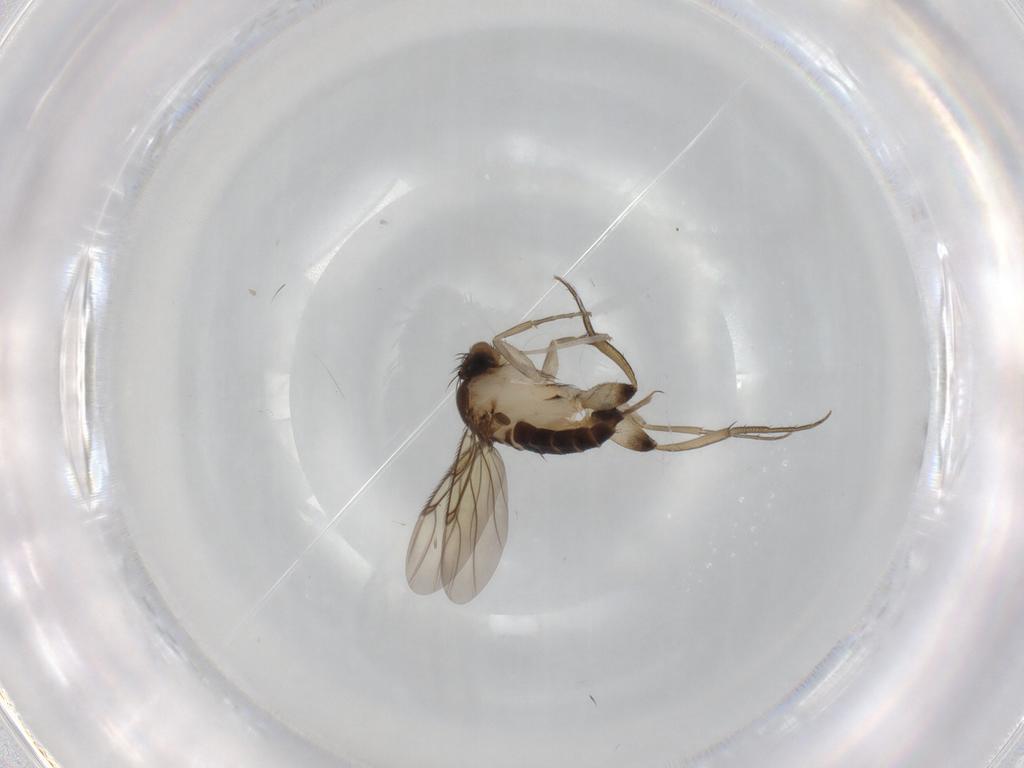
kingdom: Animalia
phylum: Arthropoda
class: Insecta
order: Diptera
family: Phoridae
